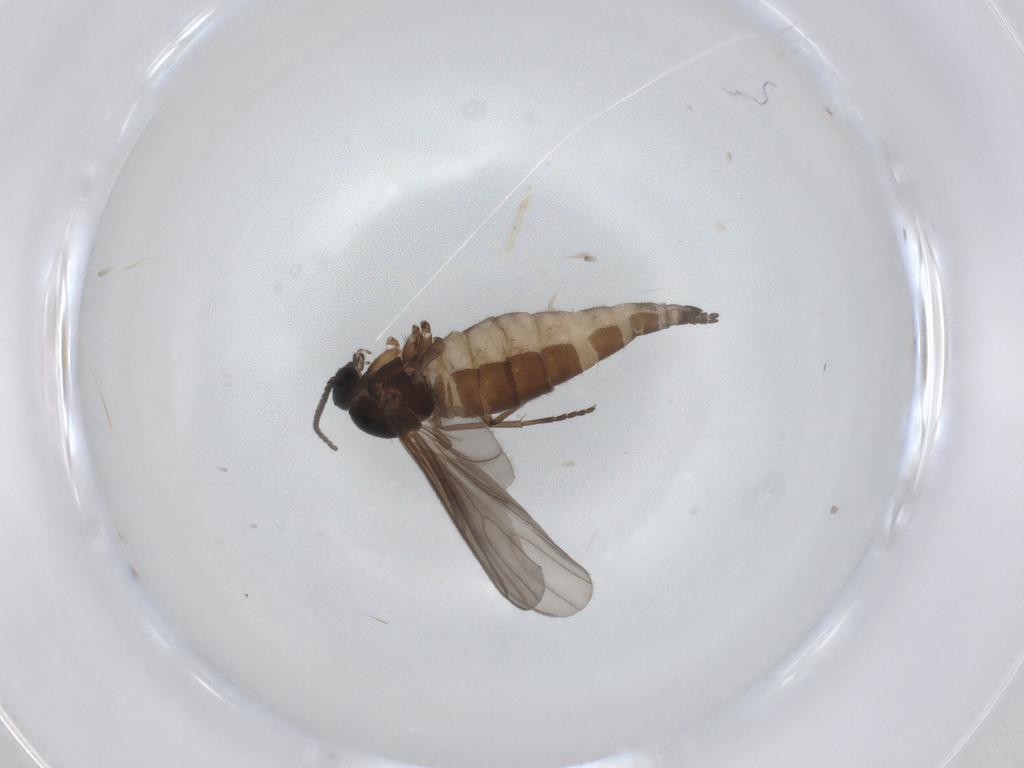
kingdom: Animalia
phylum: Arthropoda
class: Insecta
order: Diptera
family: Sciaridae
